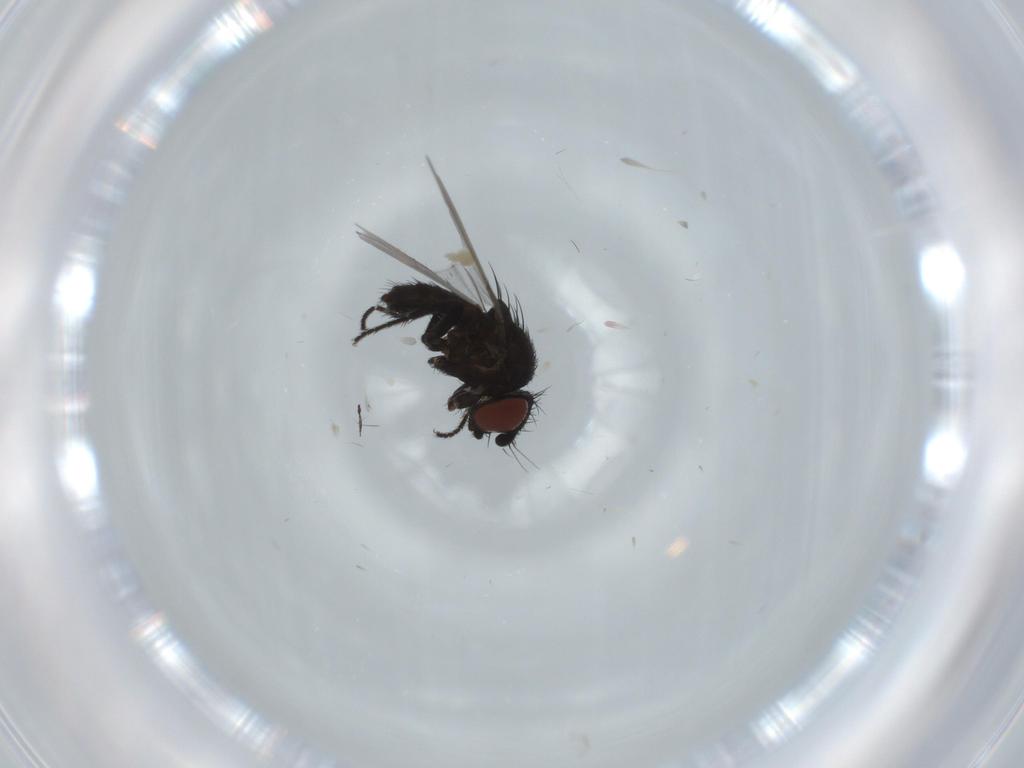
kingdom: Animalia
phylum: Arthropoda
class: Insecta
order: Diptera
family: Milichiidae
